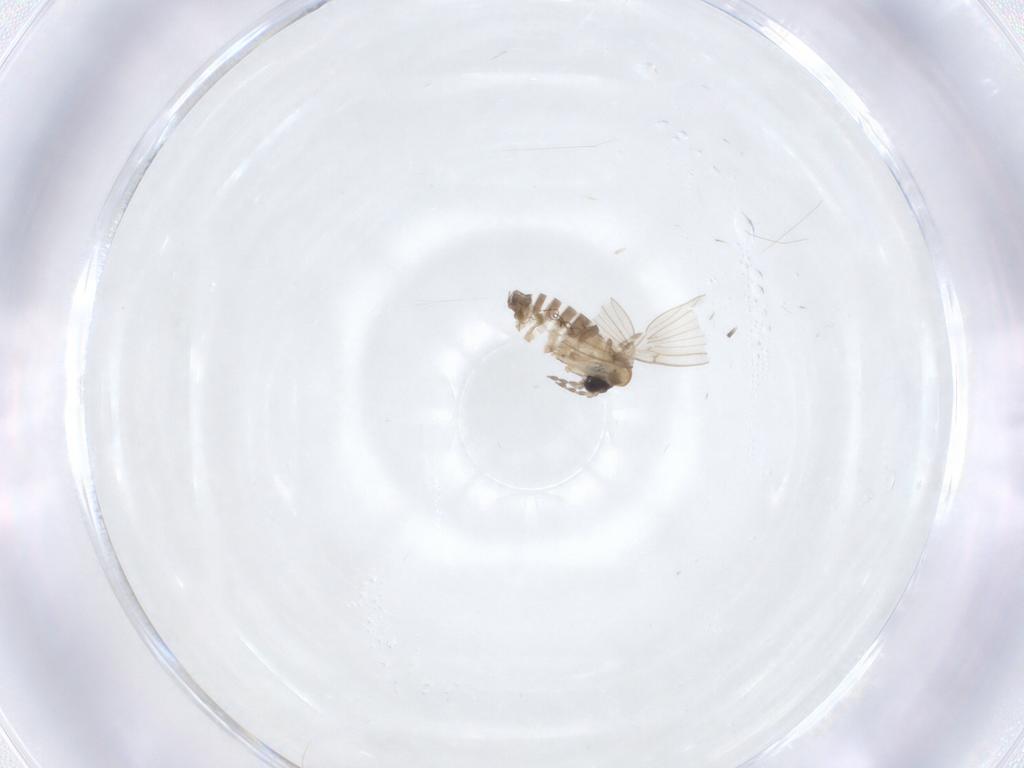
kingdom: Animalia
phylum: Arthropoda
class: Insecta
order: Diptera
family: Psychodidae
